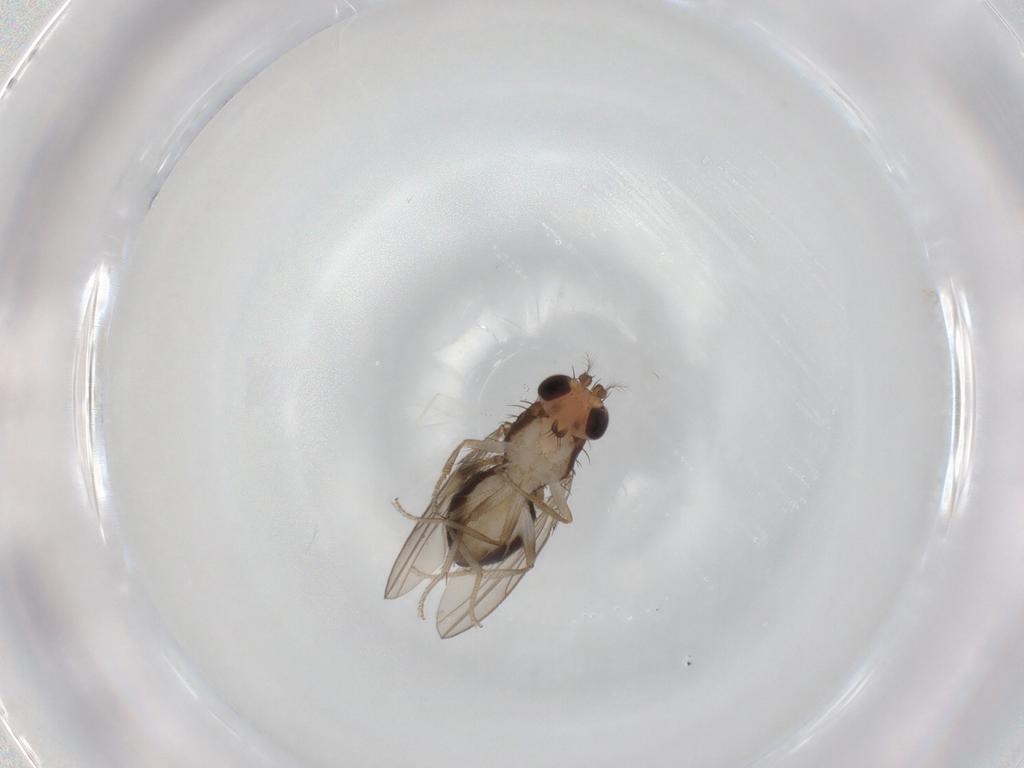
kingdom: Animalia
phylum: Arthropoda
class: Insecta
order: Diptera
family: Drosophilidae
